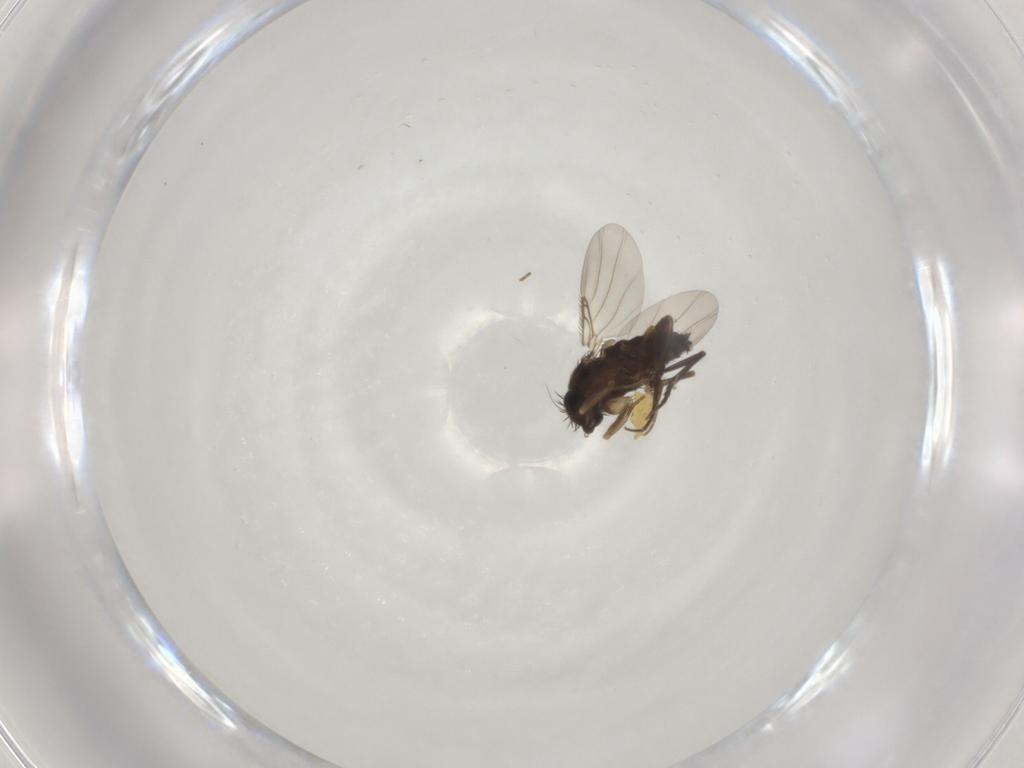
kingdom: Animalia
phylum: Arthropoda
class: Insecta
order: Diptera
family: Phoridae
